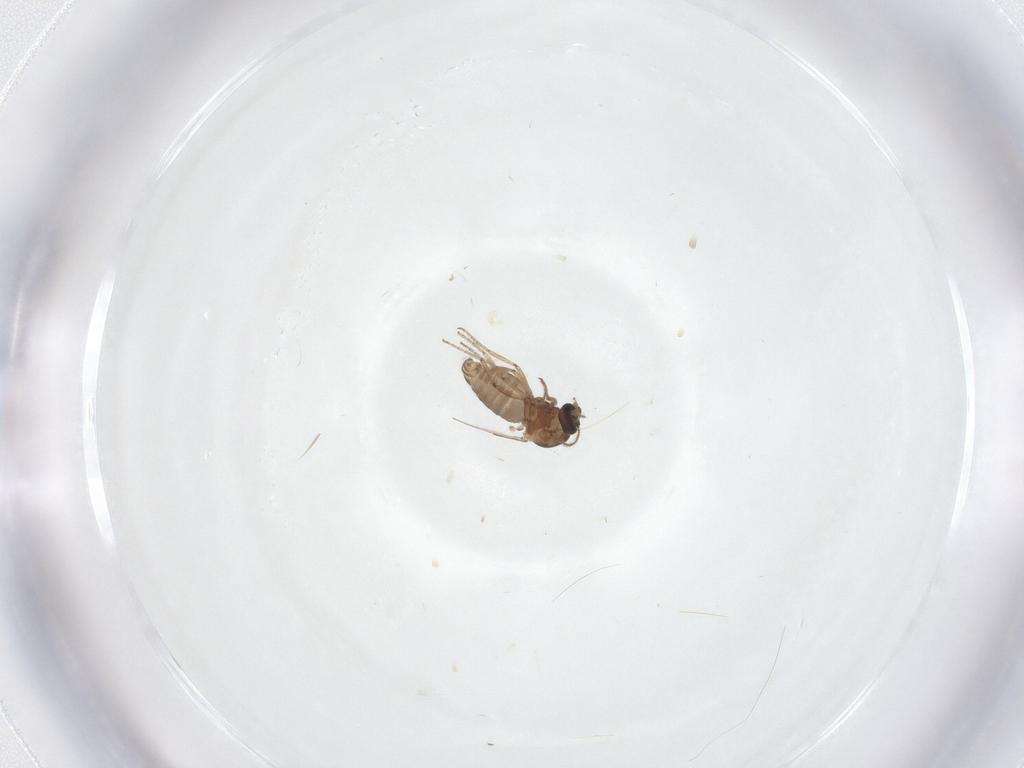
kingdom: Animalia
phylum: Arthropoda
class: Insecta
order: Diptera
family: Ceratopogonidae
